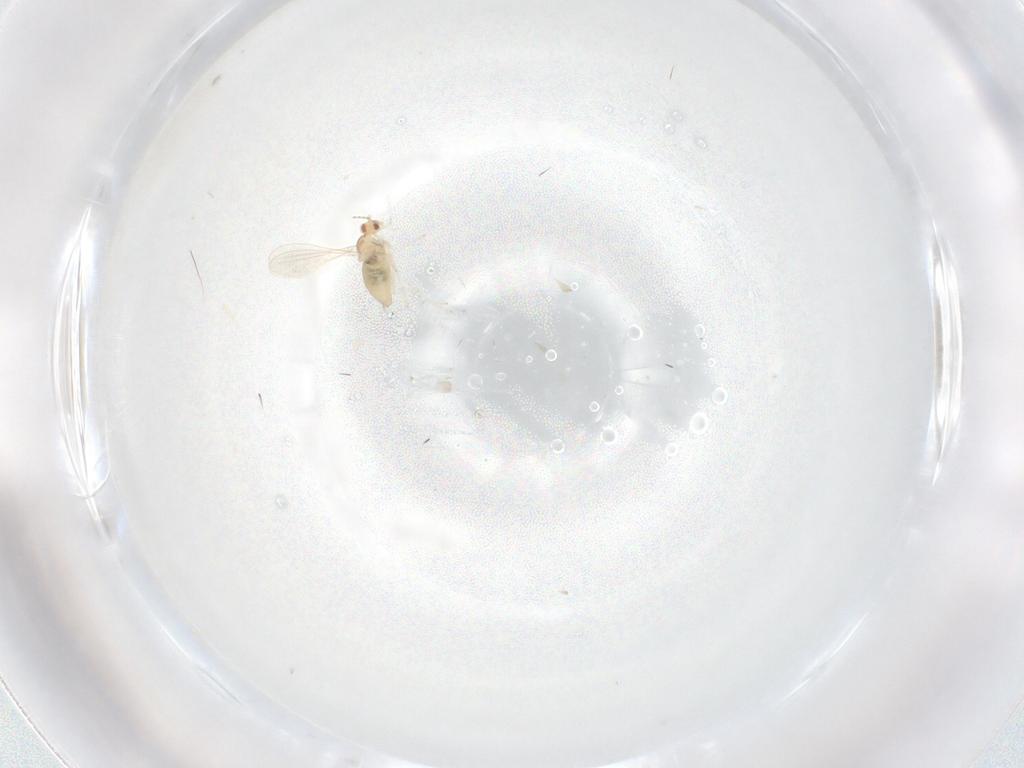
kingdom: Animalia
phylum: Arthropoda
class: Insecta
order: Diptera
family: Cecidomyiidae
